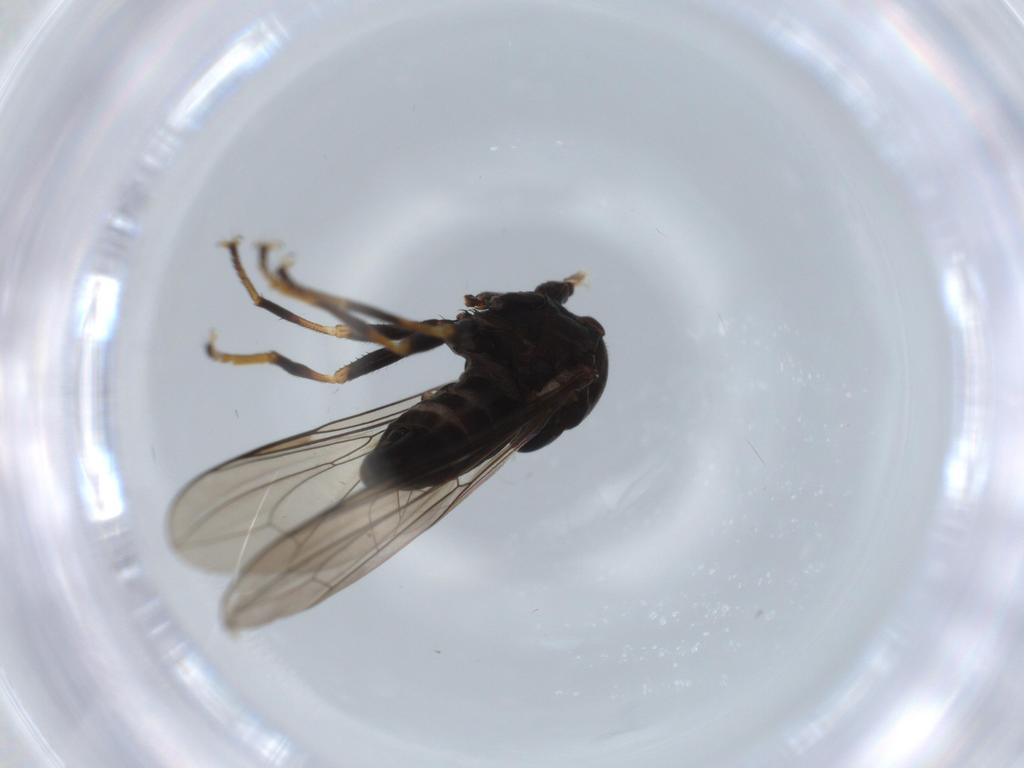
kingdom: Animalia
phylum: Arthropoda
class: Insecta
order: Diptera
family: Pipunculidae
